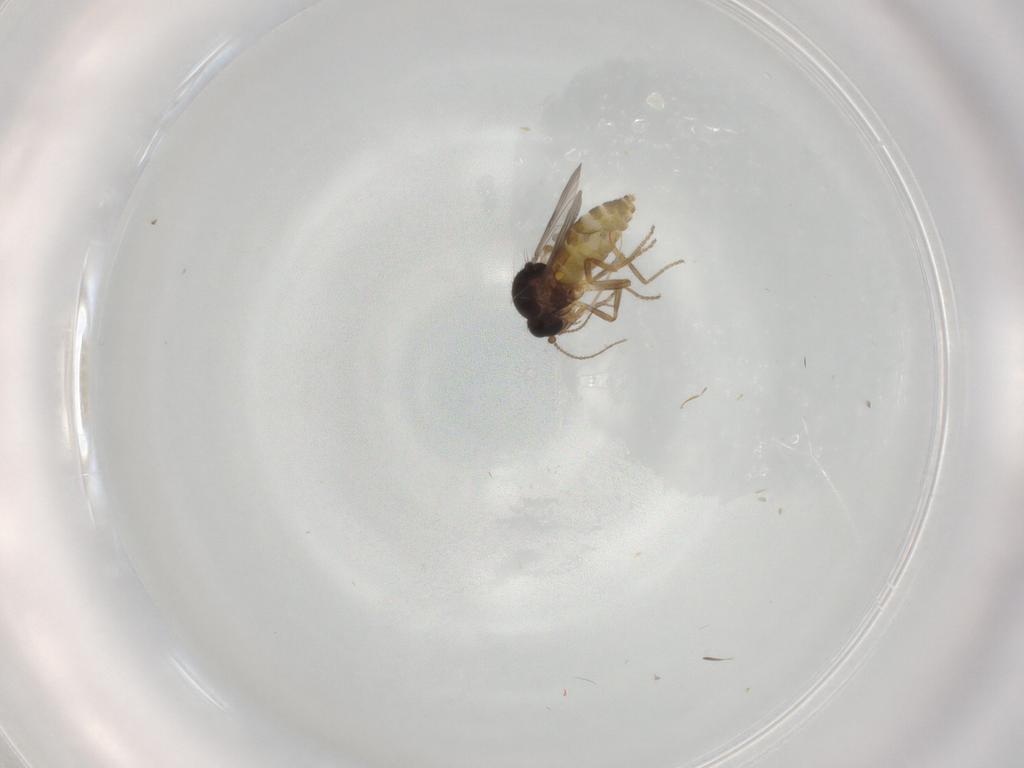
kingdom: Animalia
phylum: Arthropoda
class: Insecta
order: Diptera
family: Ceratopogonidae
